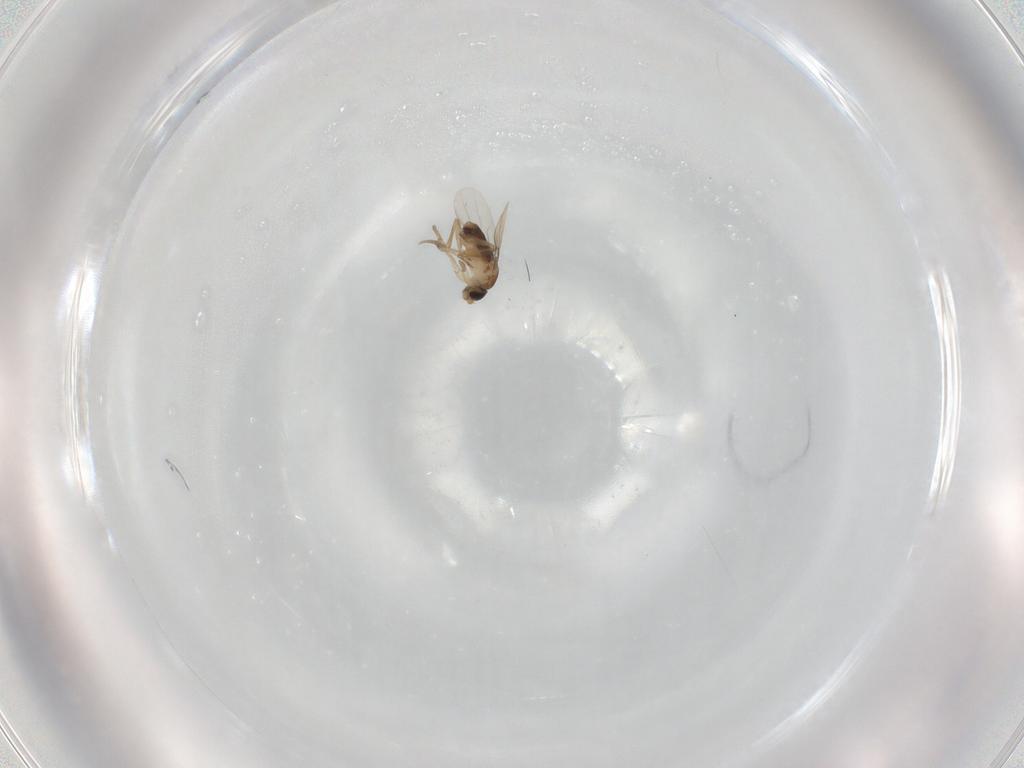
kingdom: Animalia
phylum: Arthropoda
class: Insecta
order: Diptera
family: Phoridae
